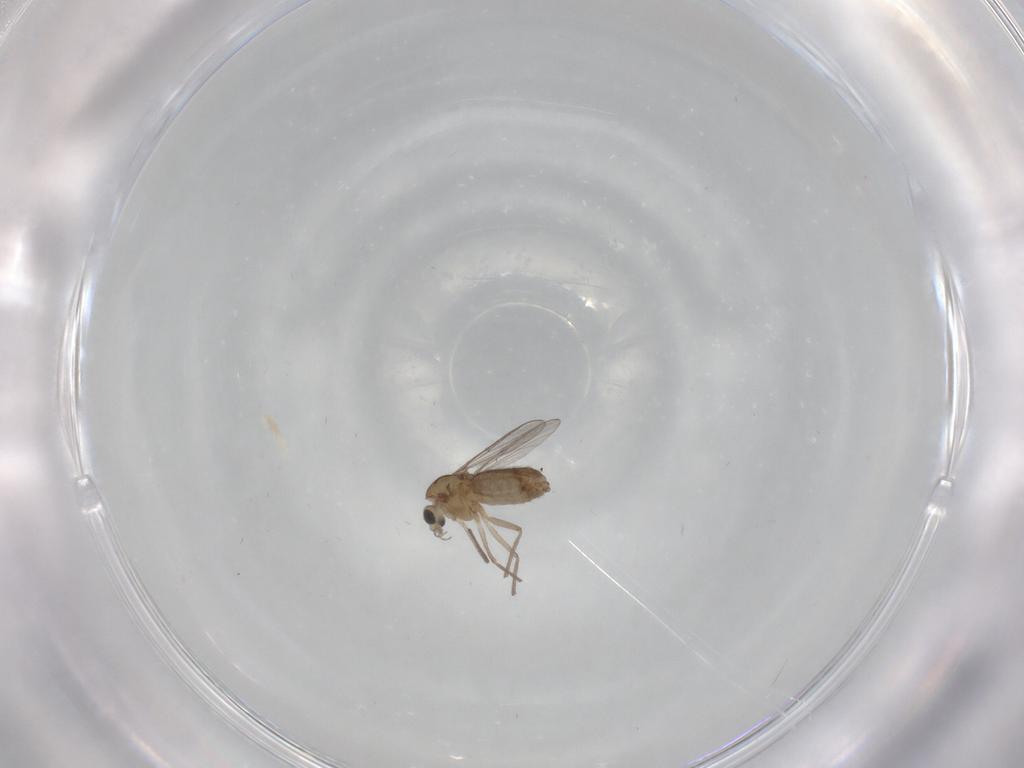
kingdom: Animalia
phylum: Arthropoda
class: Insecta
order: Diptera
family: Chironomidae
